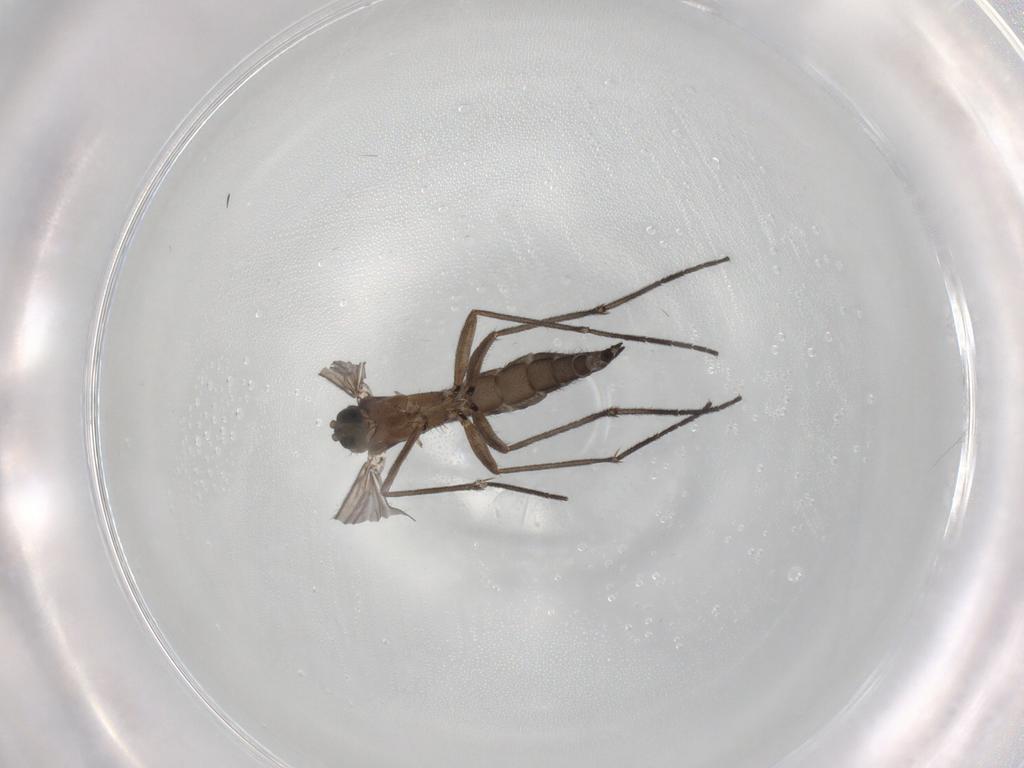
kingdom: Animalia
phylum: Arthropoda
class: Insecta
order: Diptera
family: Sciaridae
